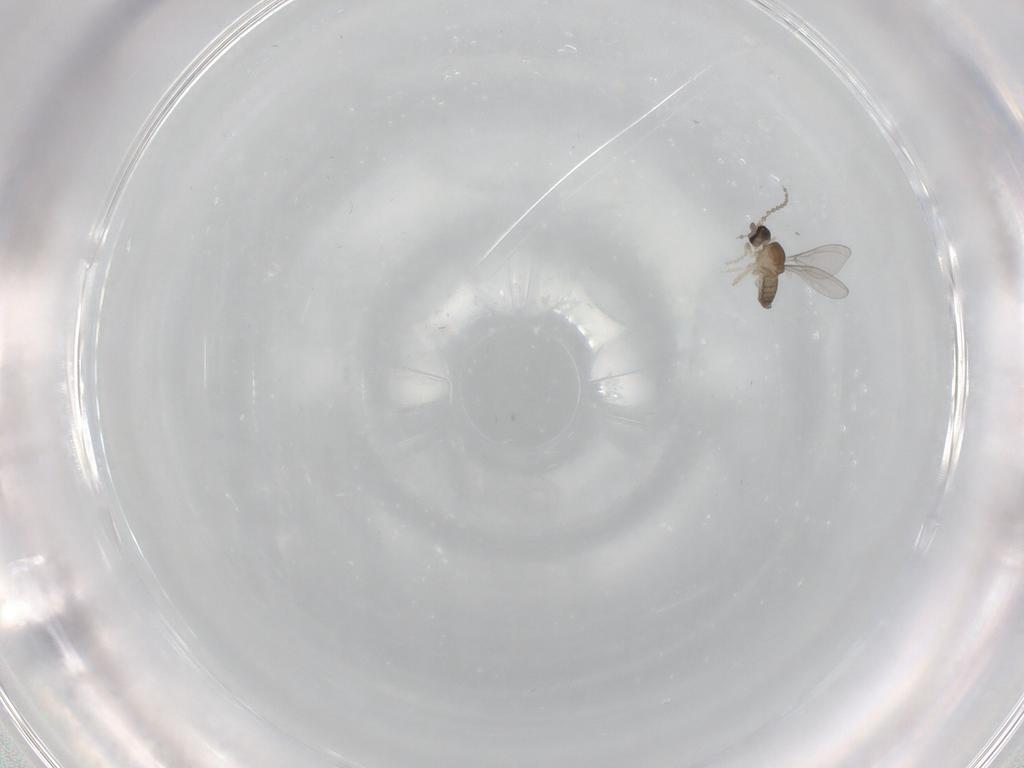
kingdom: Animalia
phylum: Arthropoda
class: Insecta
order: Diptera
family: Cecidomyiidae
